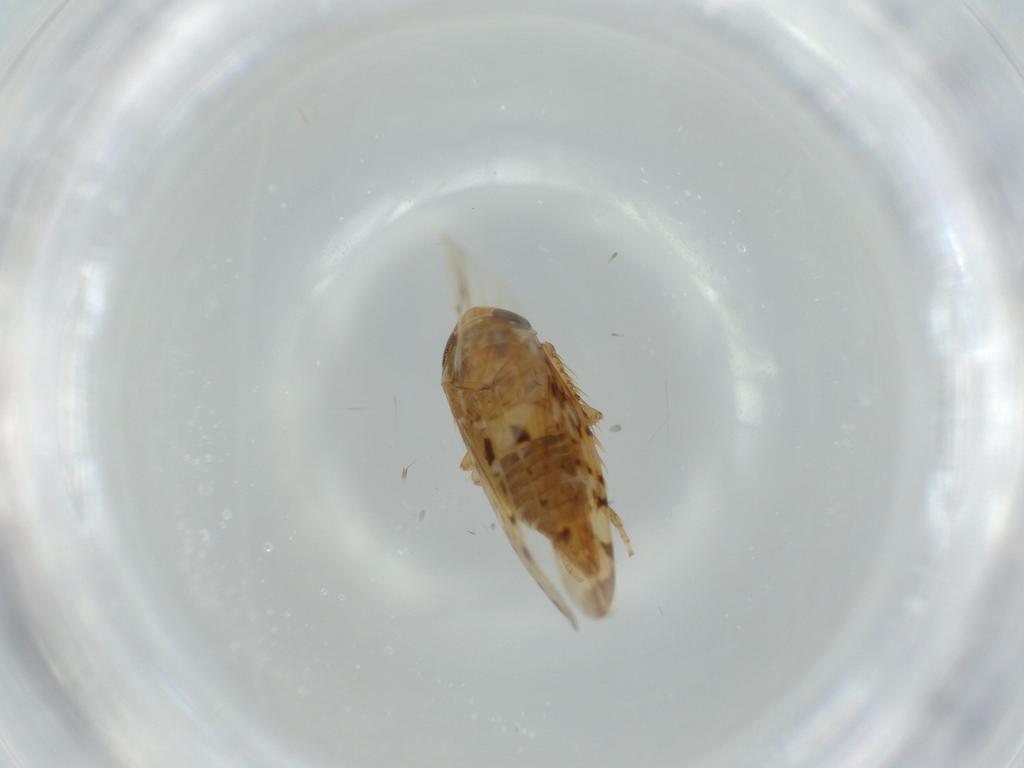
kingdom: Animalia
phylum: Arthropoda
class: Insecta
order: Hemiptera
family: Cicadellidae
